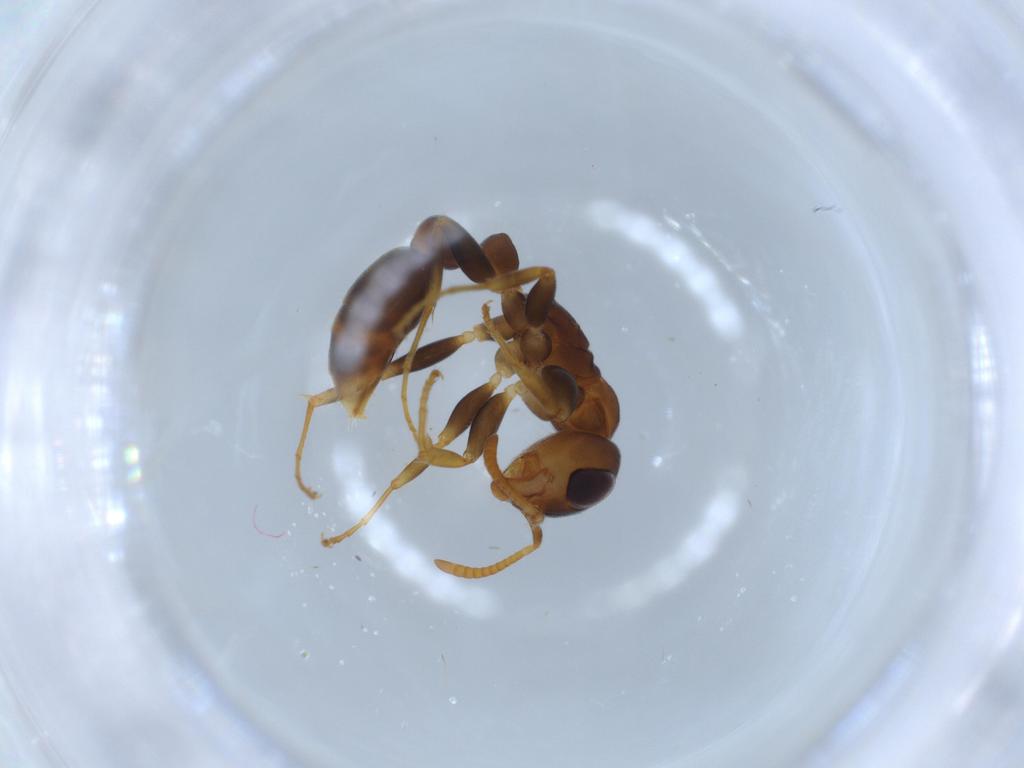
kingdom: Animalia
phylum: Arthropoda
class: Insecta
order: Hymenoptera
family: Formicidae
